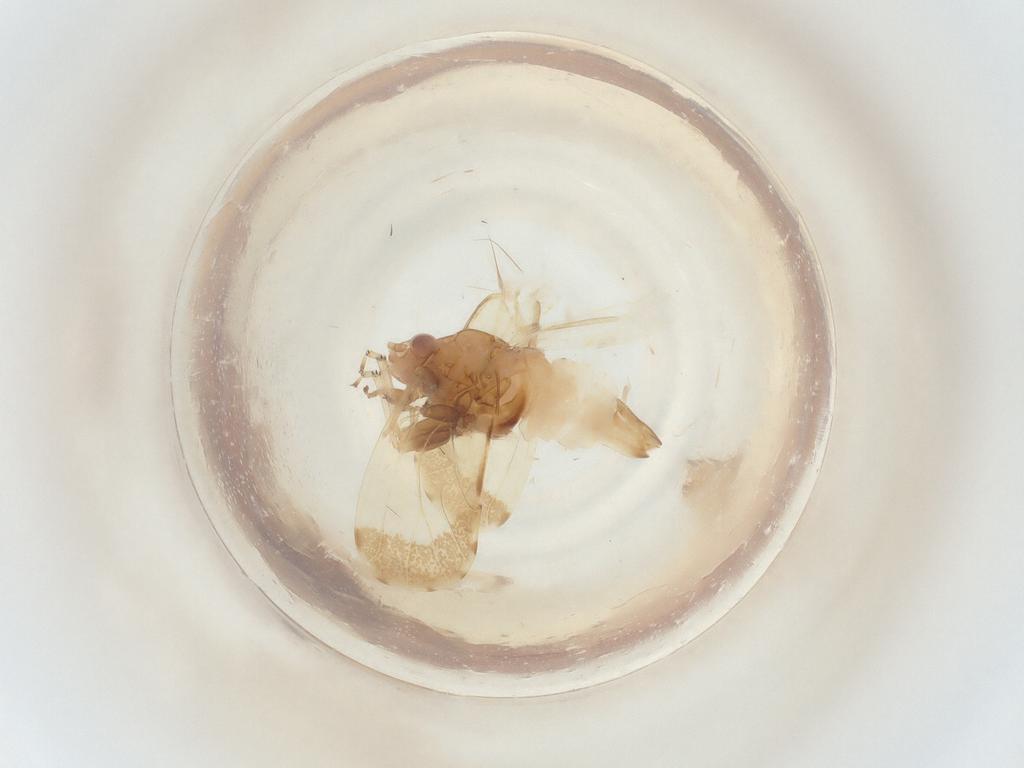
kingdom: Animalia
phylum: Arthropoda
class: Insecta
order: Hemiptera
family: Psyllidae
